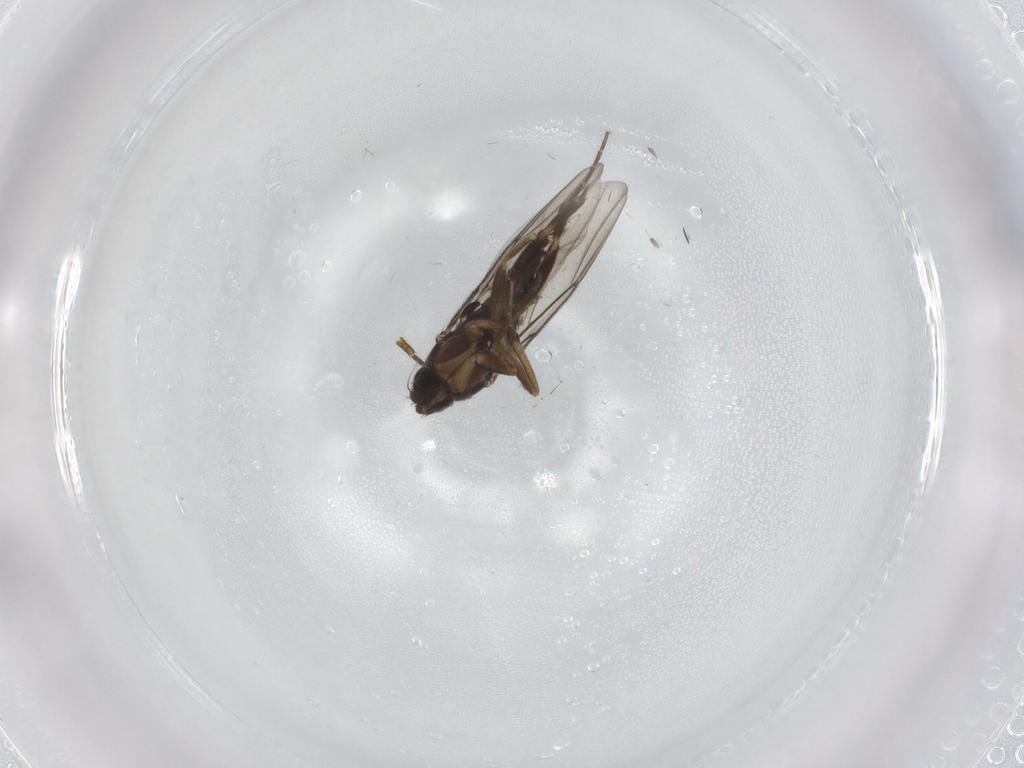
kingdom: Animalia
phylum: Arthropoda
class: Insecta
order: Diptera
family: Phoridae
